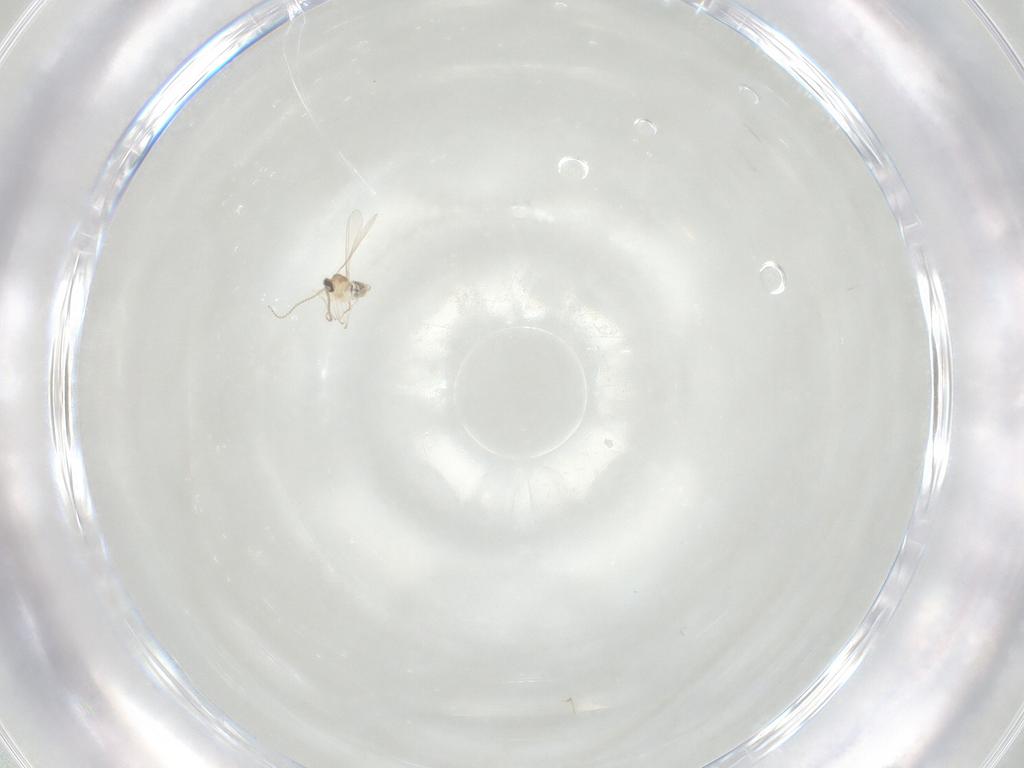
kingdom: Animalia
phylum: Arthropoda
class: Insecta
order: Diptera
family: Cecidomyiidae
